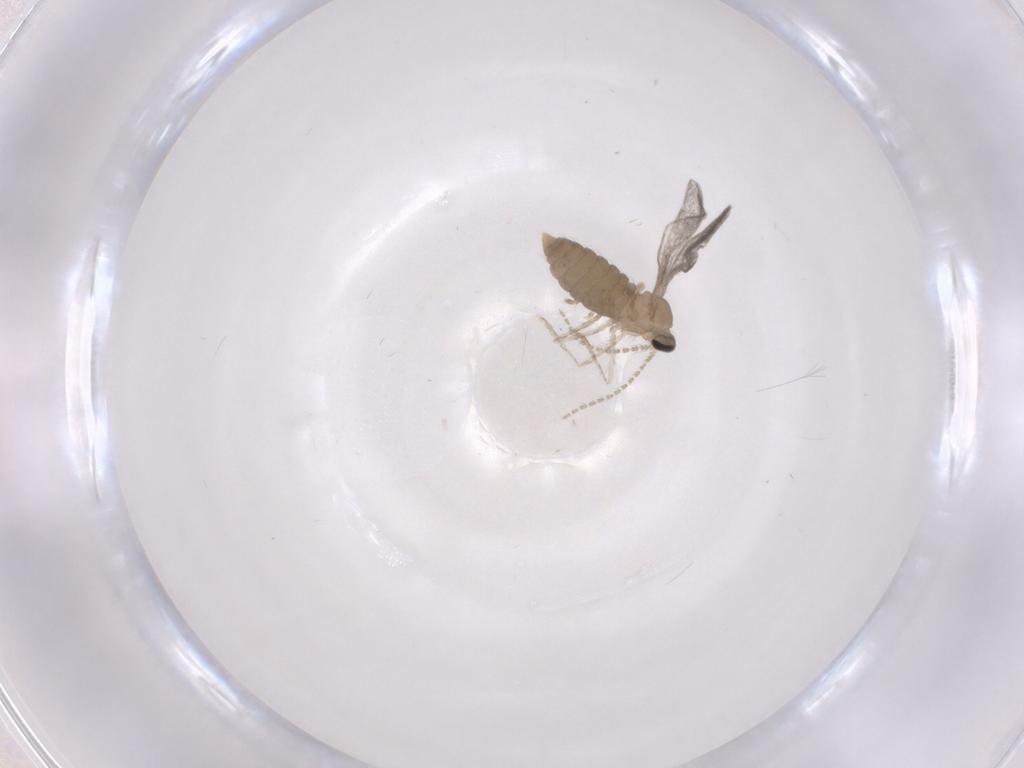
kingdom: Animalia
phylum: Arthropoda
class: Insecta
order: Diptera
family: Cecidomyiidae
